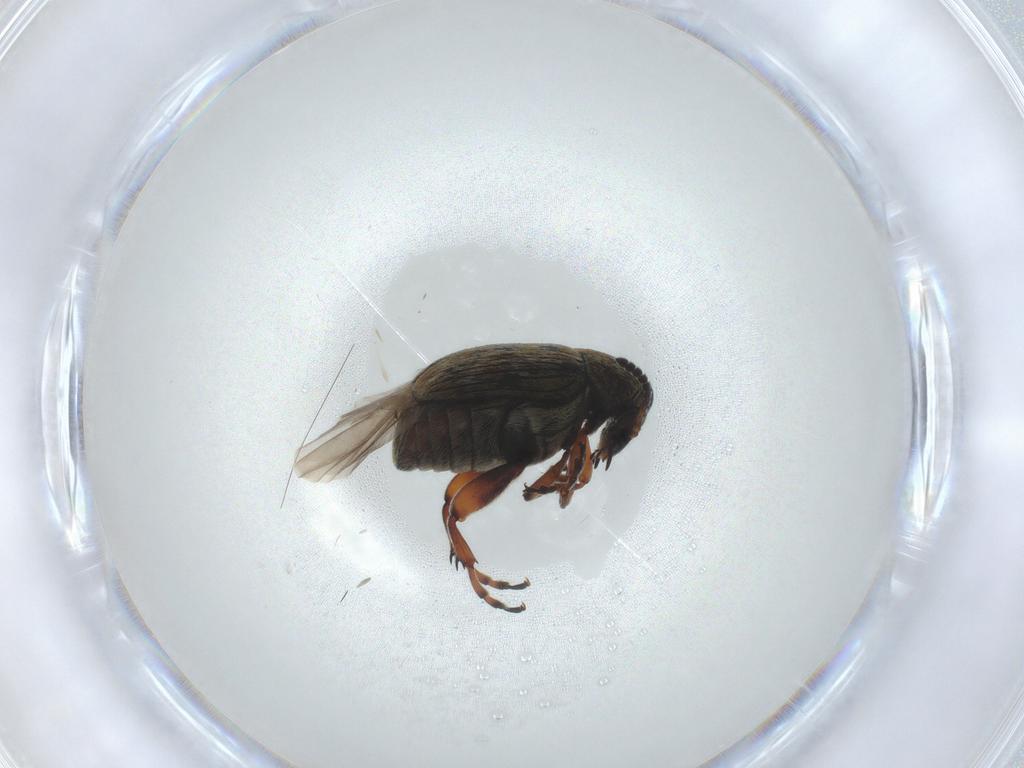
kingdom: Animalia
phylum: Arthropoda
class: Insecta
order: Coleoptera
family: Chrysomelidae
